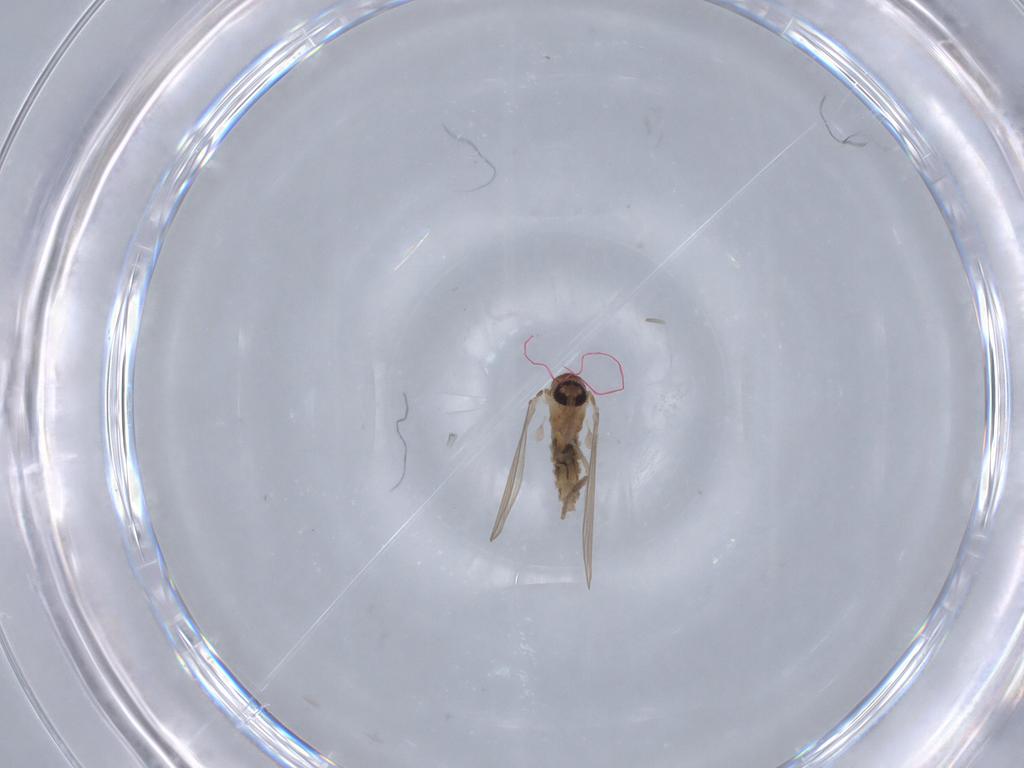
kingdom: Animalia
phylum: Arthropoda
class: Insecta
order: Diptera
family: Psychodidae
